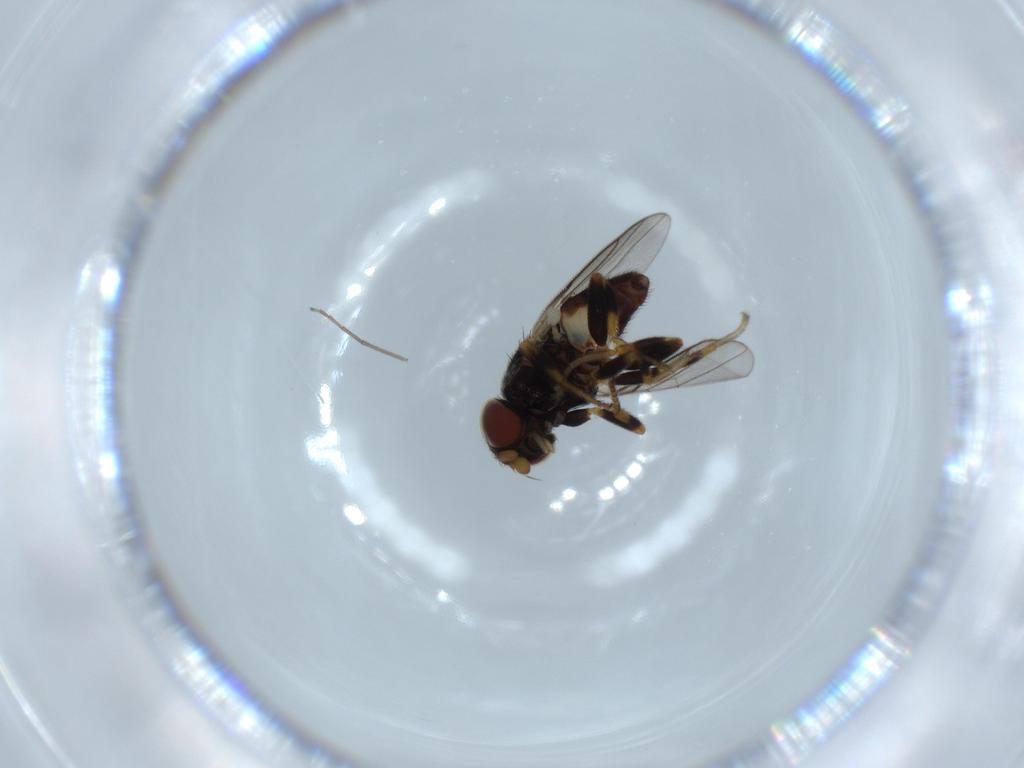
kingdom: Animalia
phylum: Arthropoda
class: Insecta
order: Diptera
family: Chloropidae
